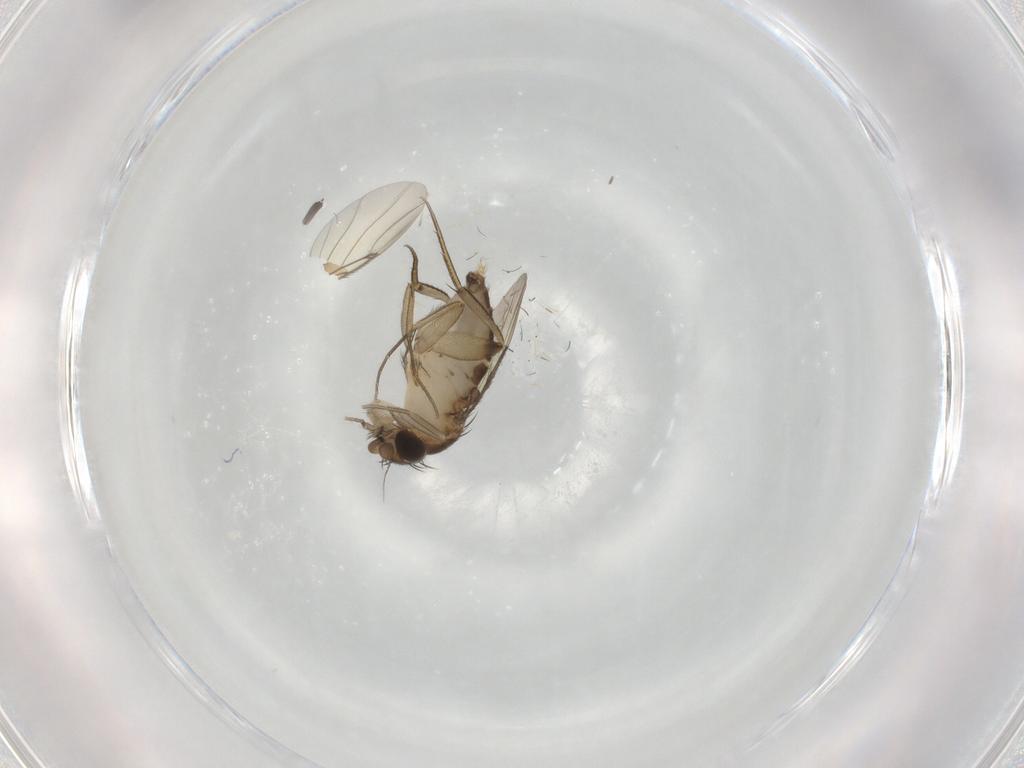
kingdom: Animalia
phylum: Arthropoda
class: Insecta
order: Diptera
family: Phoridae
